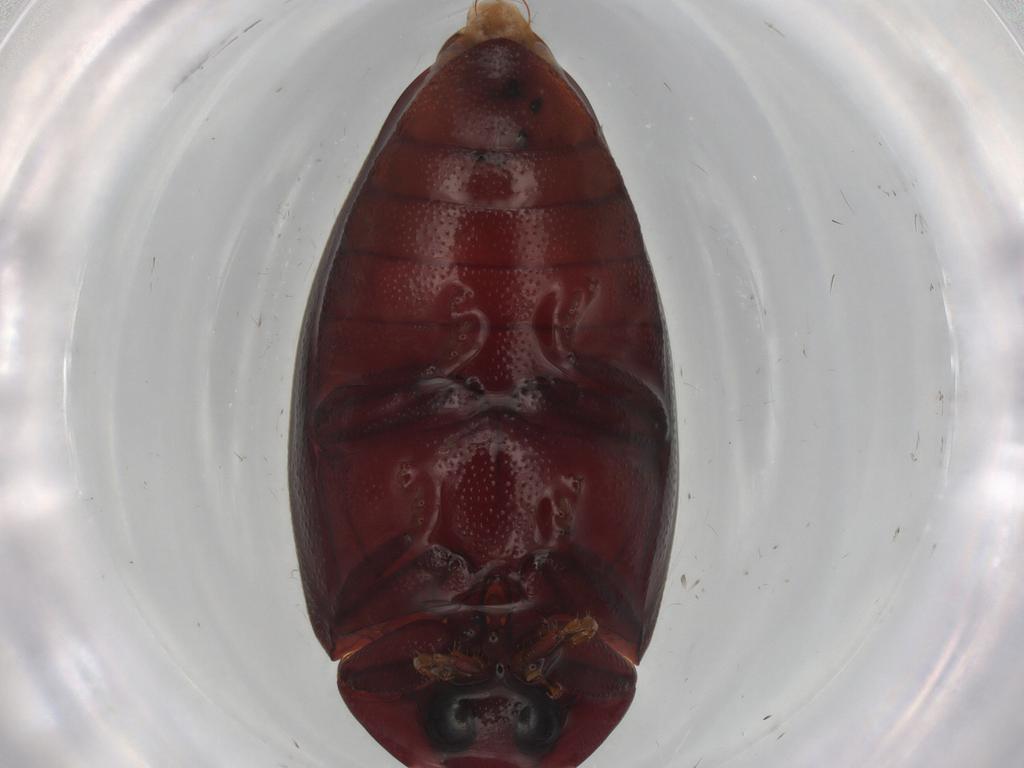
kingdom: Animalia
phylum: Arthropoda
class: Insecta
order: Coleoptera
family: Chelonariidae
